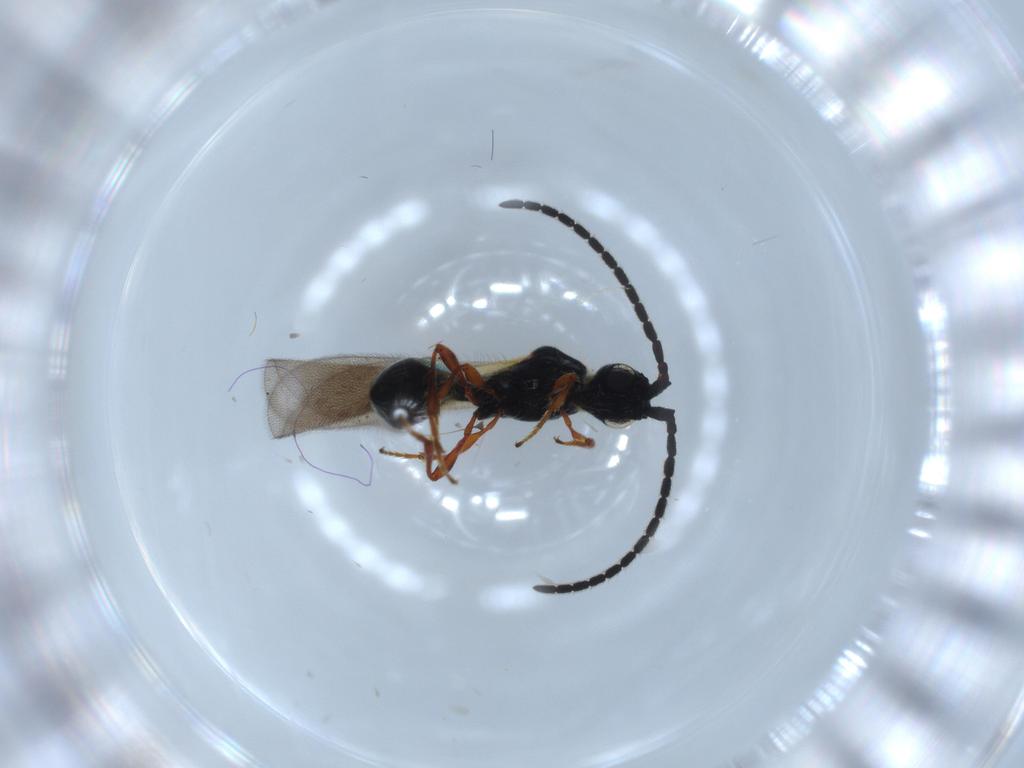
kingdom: Animalia
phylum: Arthropoda
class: Insecta
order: Hymenoptera
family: Diapriidae
